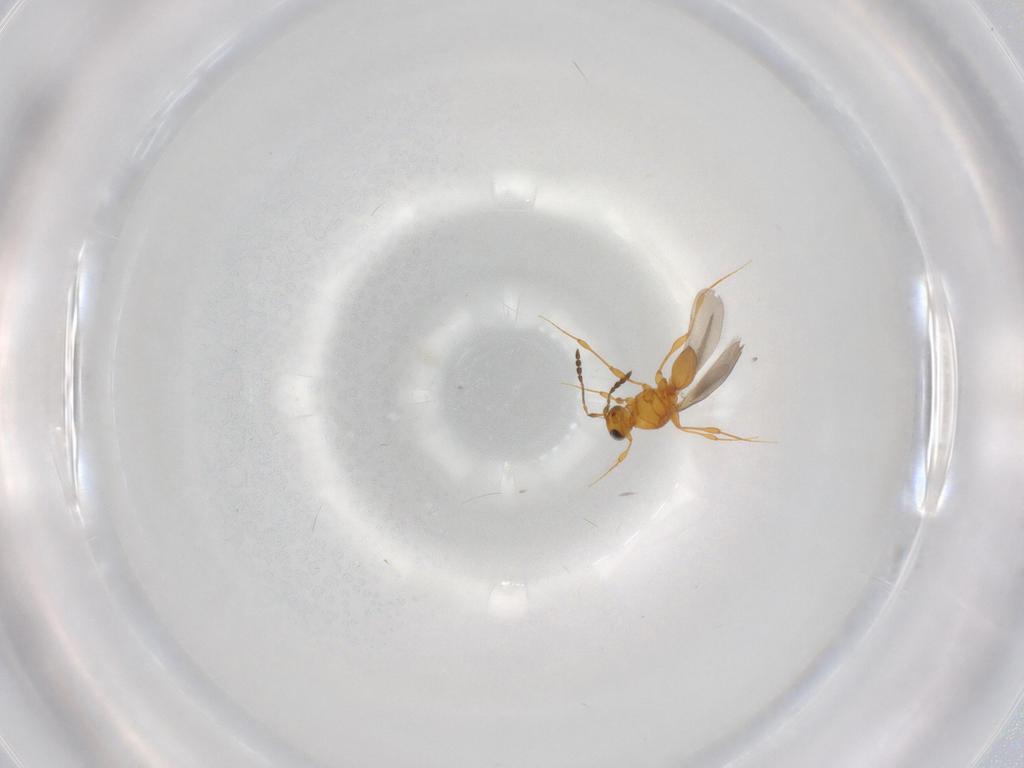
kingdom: Animalia
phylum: Arthropoda
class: Insecta
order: Hymenoptera
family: Platygastridae
